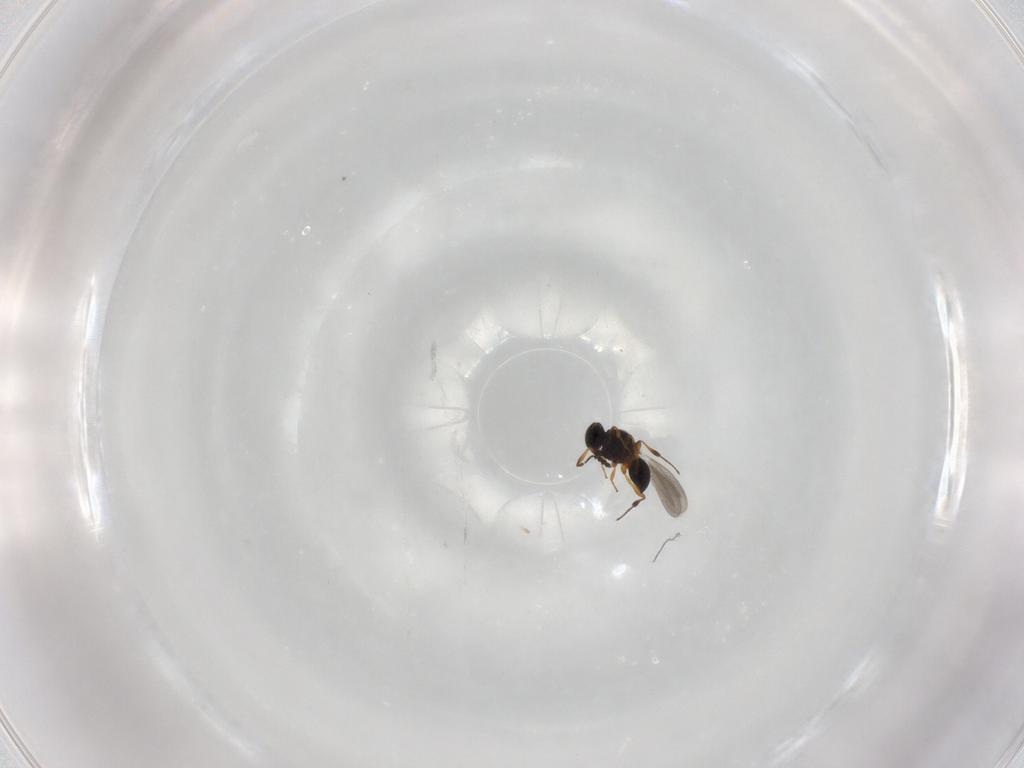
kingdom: Animalia
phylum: Arthropoda
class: Insecta
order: Hymenoptera
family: Platygastridae
